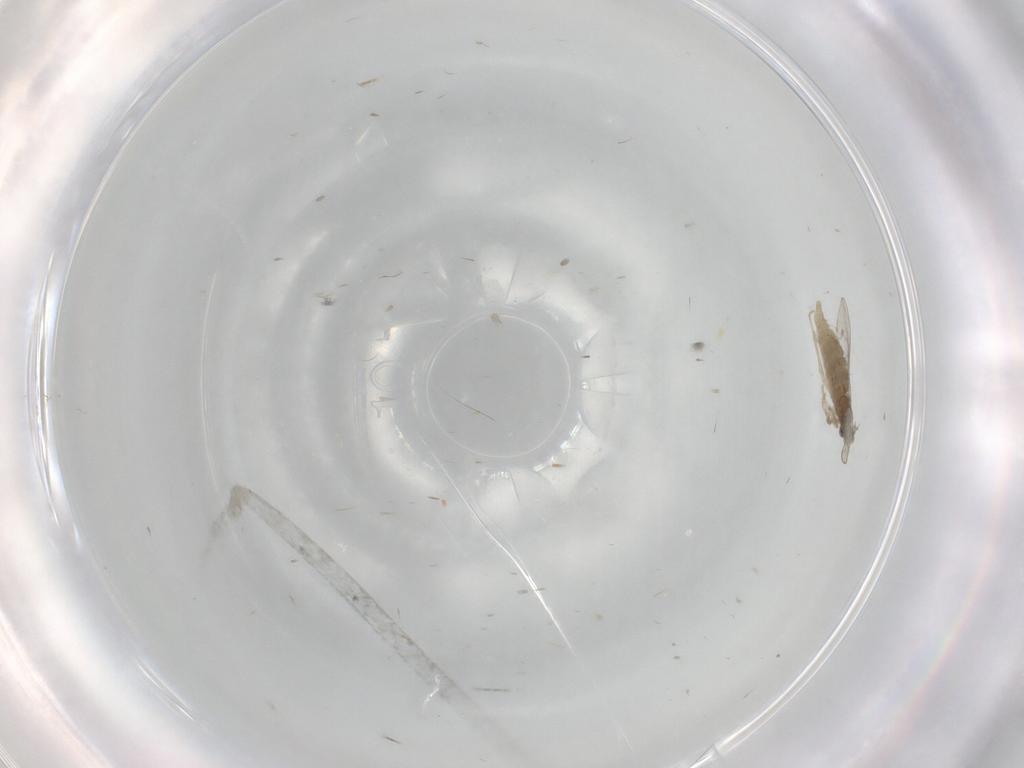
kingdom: Animalia
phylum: Arthropoda
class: Insecta
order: Diptera
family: Cecidomyiidae
